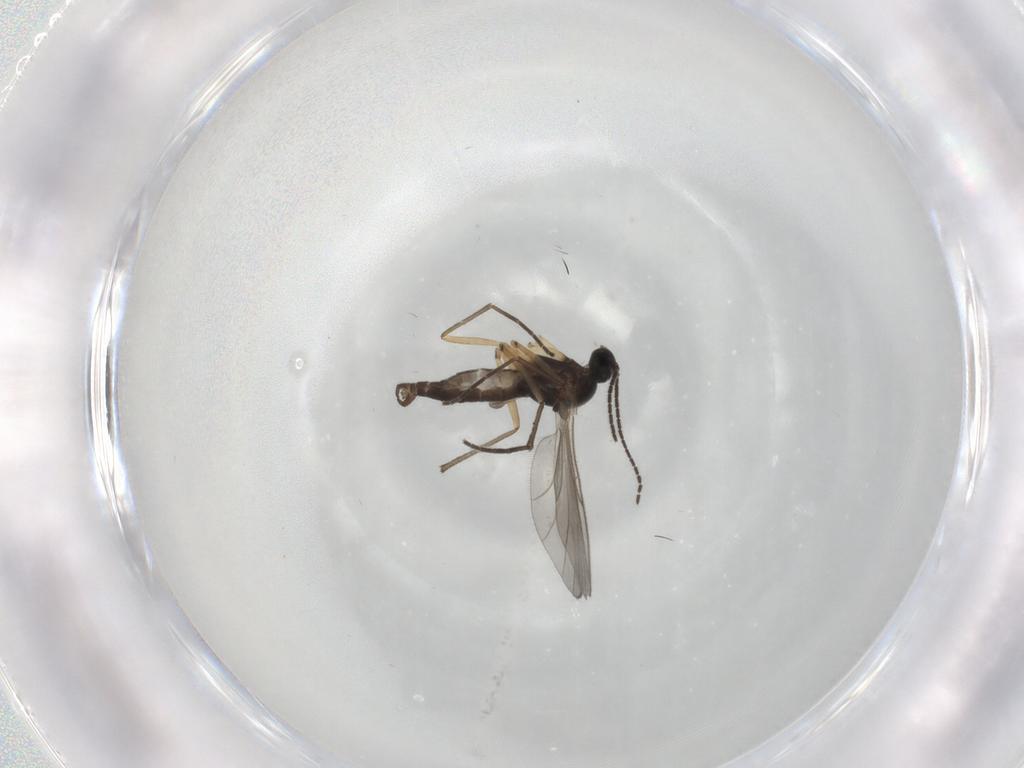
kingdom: Animalia
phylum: Arthropoda
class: Insecta
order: Diptera
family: Sciaridae
